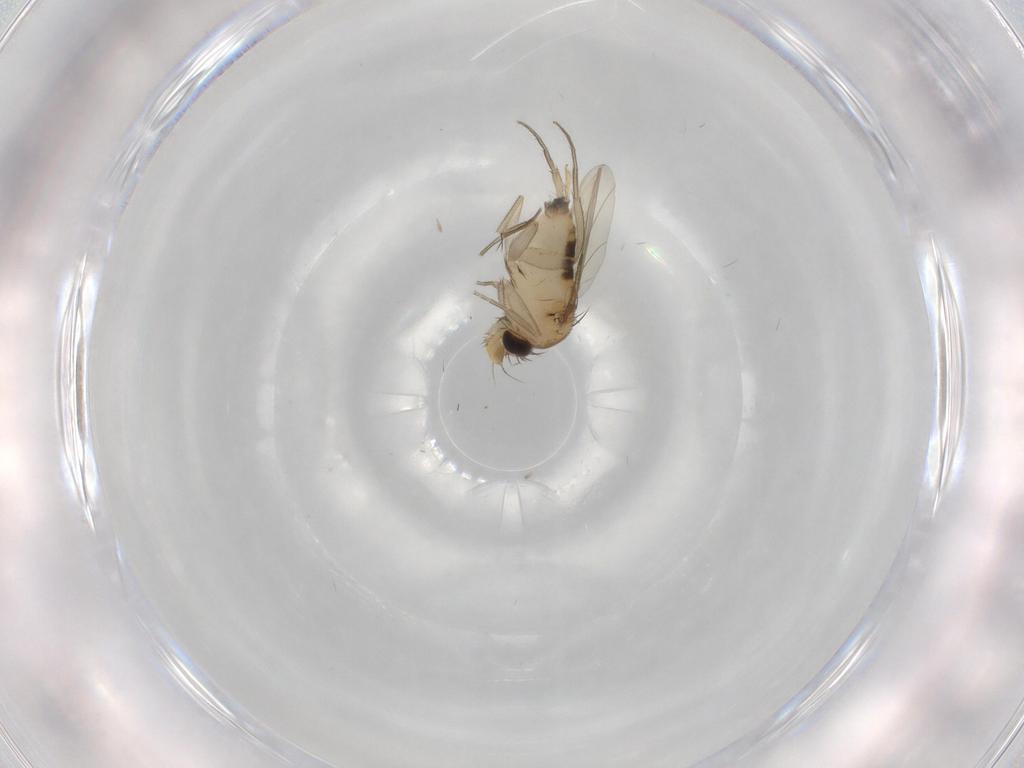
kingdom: Animalia
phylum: Arthropoda
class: Insecta
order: Diptera
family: Phoridae
